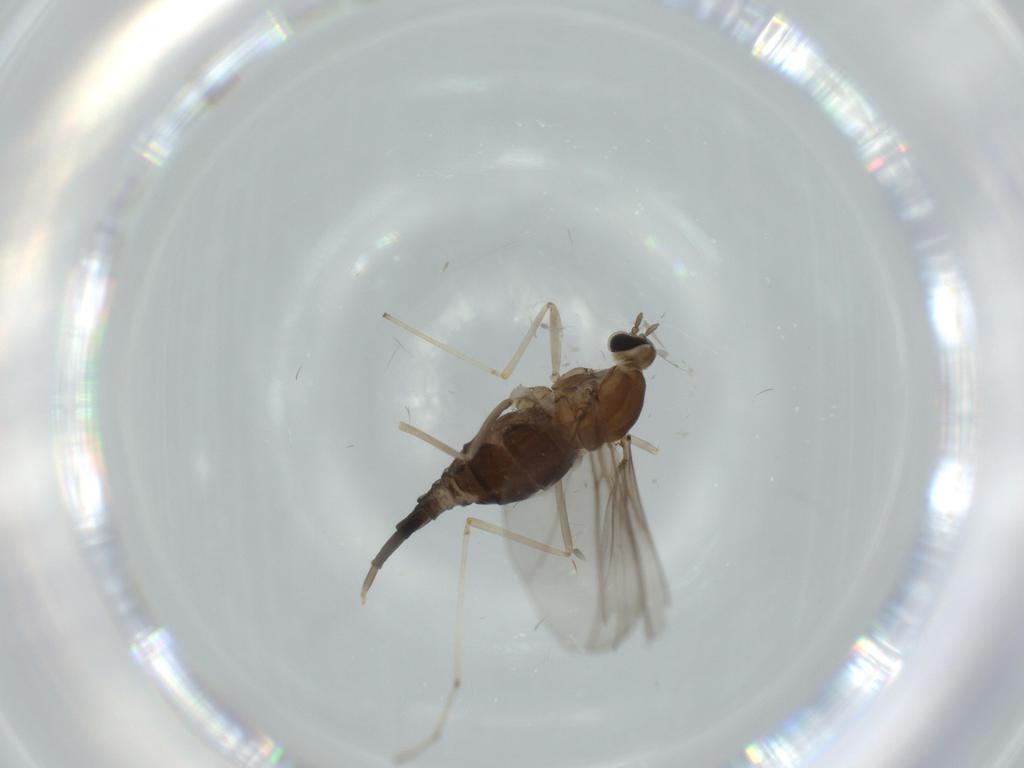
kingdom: Animalia
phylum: Arthropoda
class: Insecta
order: Diptera
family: Cecidomyiidae
